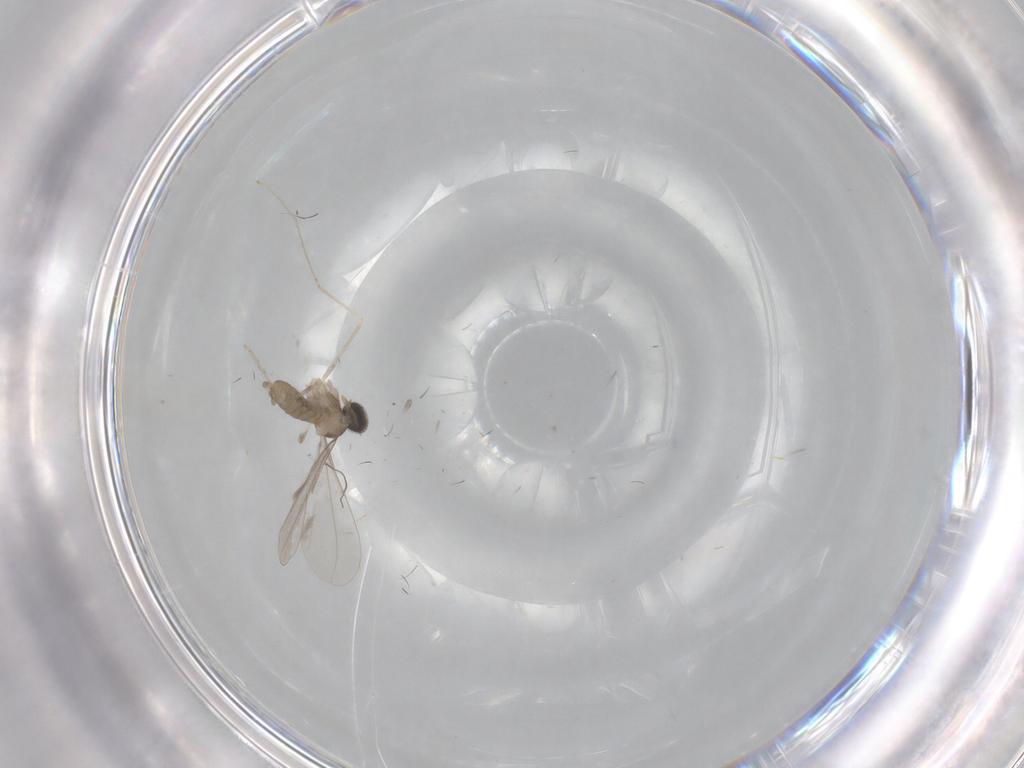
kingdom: Animalia
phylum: Arthropoda
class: Insecta
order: Diptera
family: Cecidomyiidae
